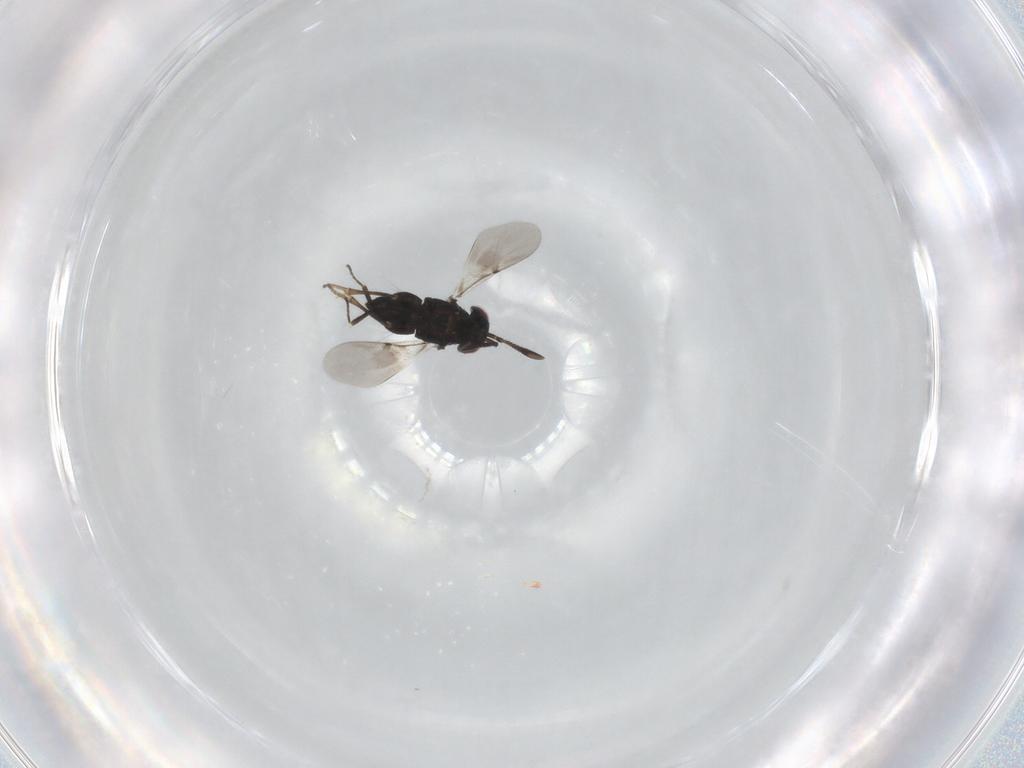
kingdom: Animalia
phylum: Arthropoda
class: Insecta
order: Hymenoptera
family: Encyrtidae
